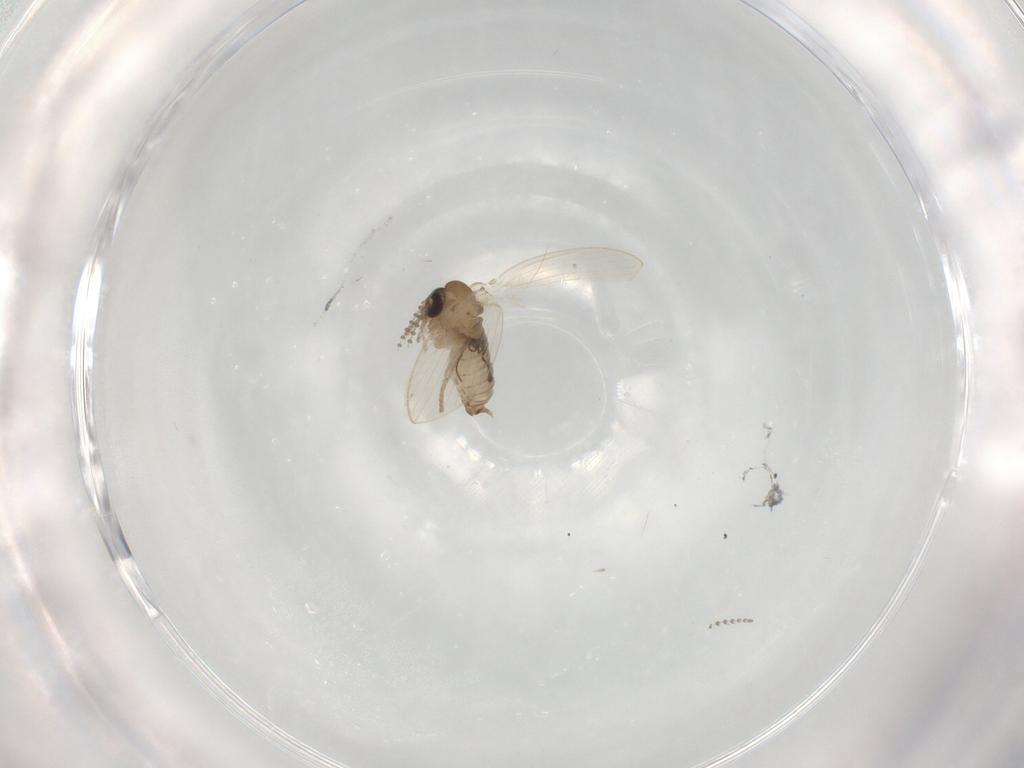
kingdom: Animalia
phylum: Arthropoda
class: Insecta
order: Diptera
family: Psychodidae
